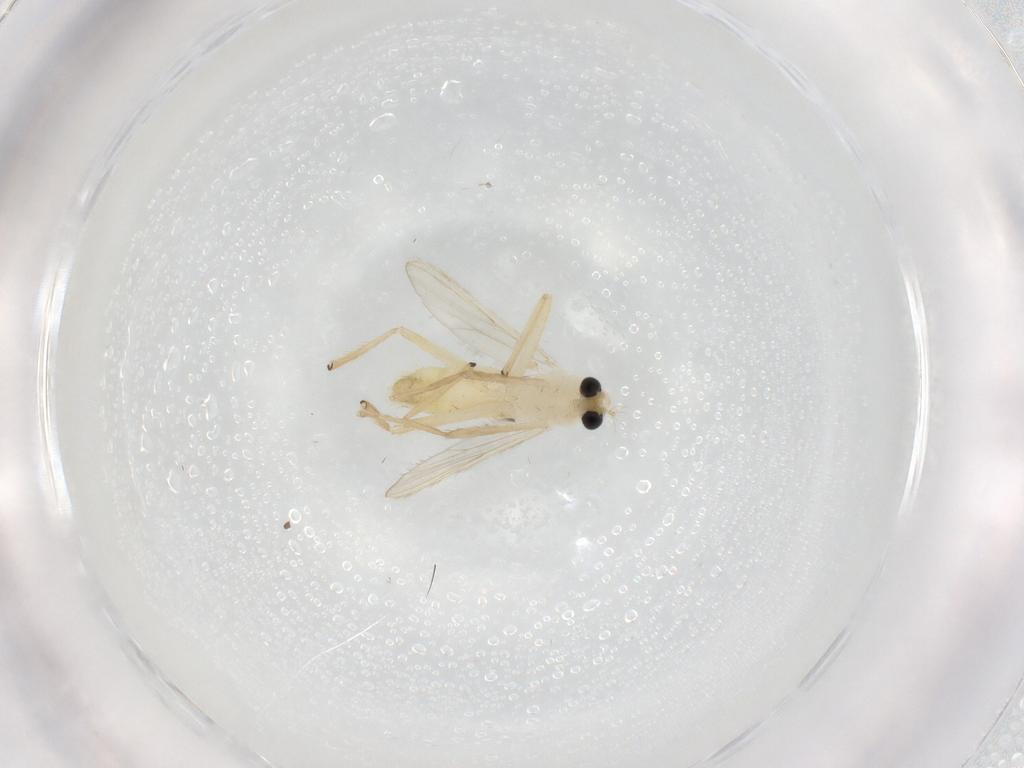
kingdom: Animalia
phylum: Arthropoda
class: Insecta
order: Diptera
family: Chironomidae
